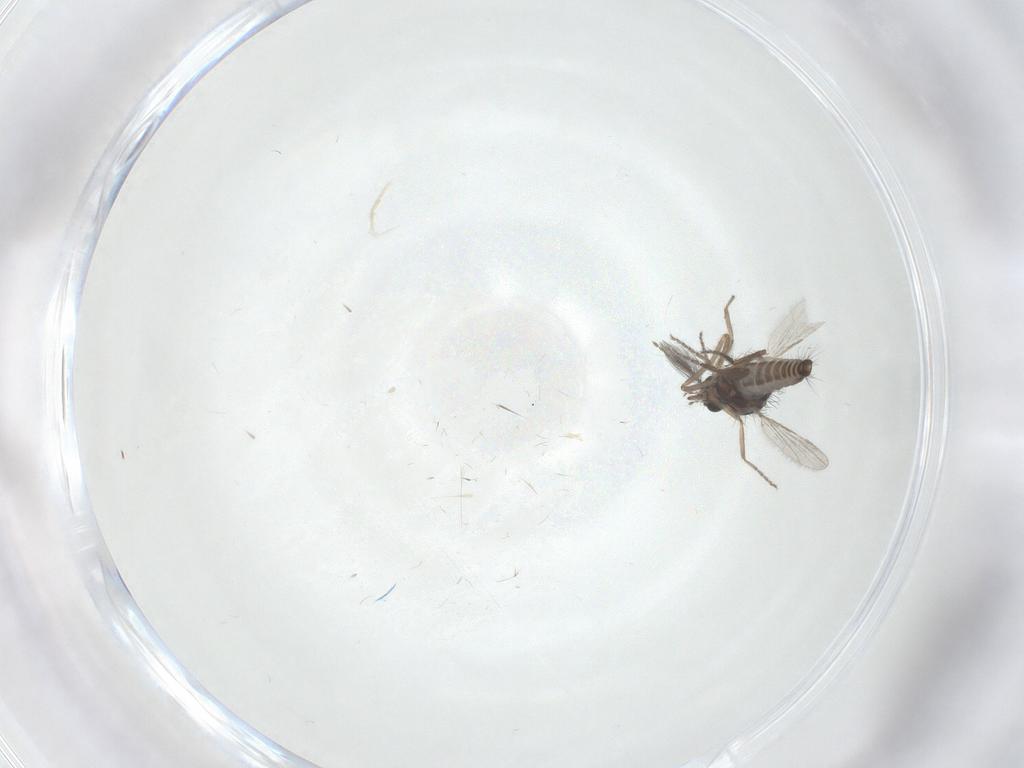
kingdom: Animalia
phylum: Arthropoda
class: Insecta
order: Diptera
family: Ceratopogonidae
